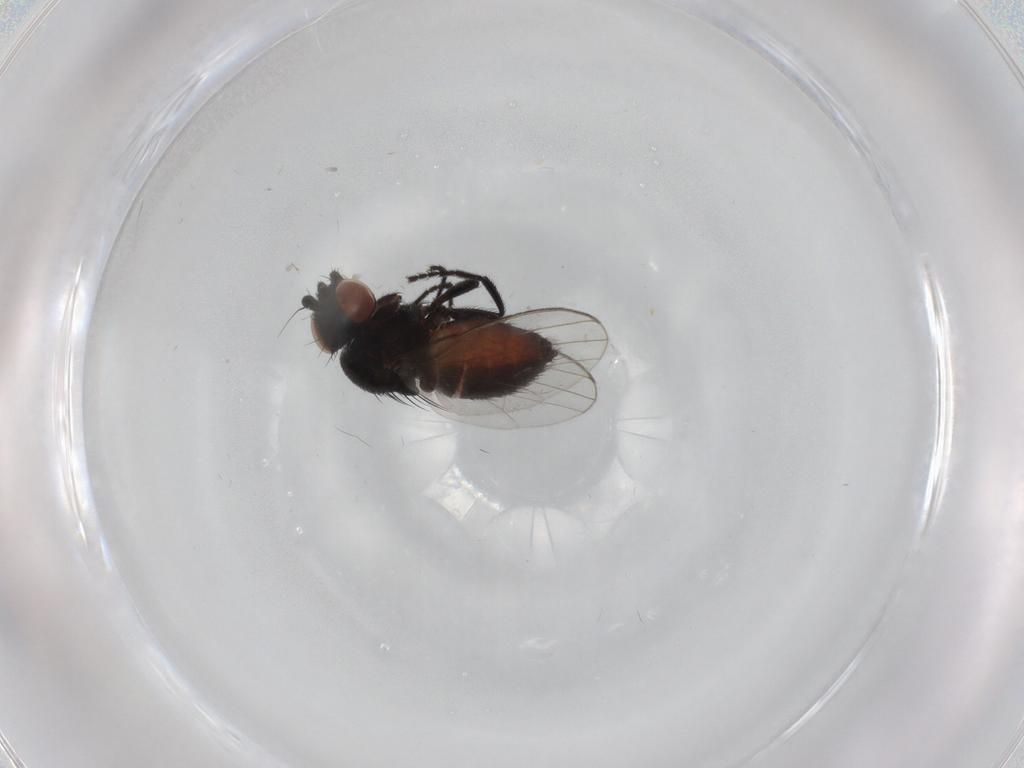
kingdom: Animalia
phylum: Arthropoda
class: Insecta
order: Diptera
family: Milichiidae
